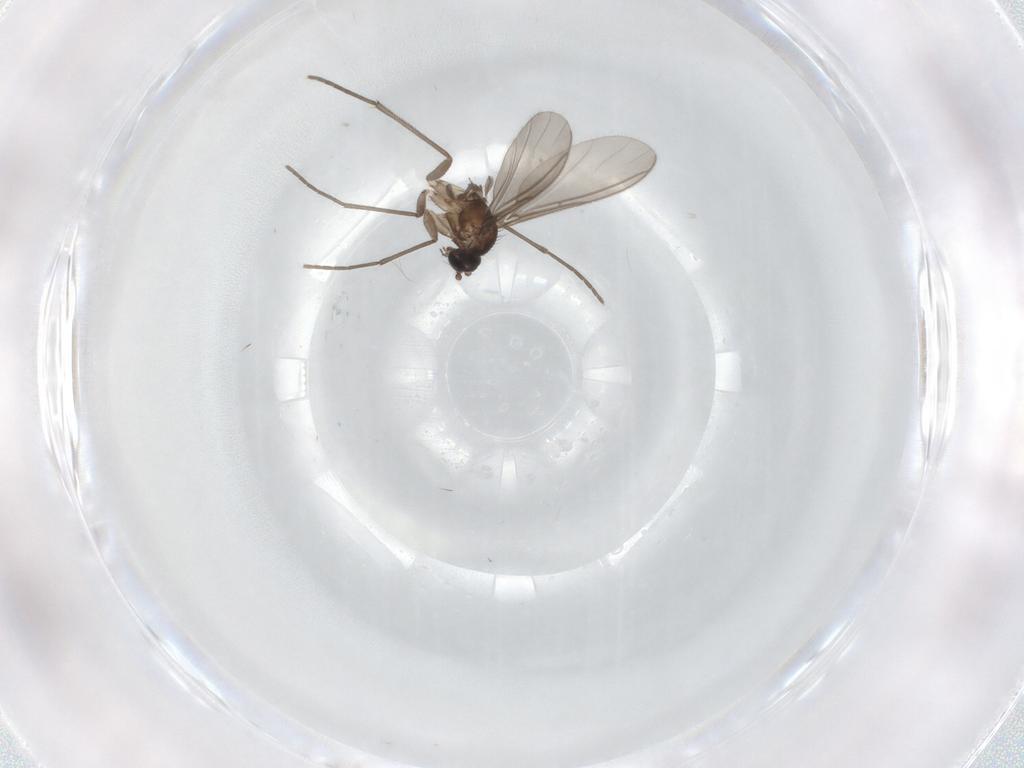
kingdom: Animalia
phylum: Arthropoda
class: Insecta
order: Diptera
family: Sciaridae
